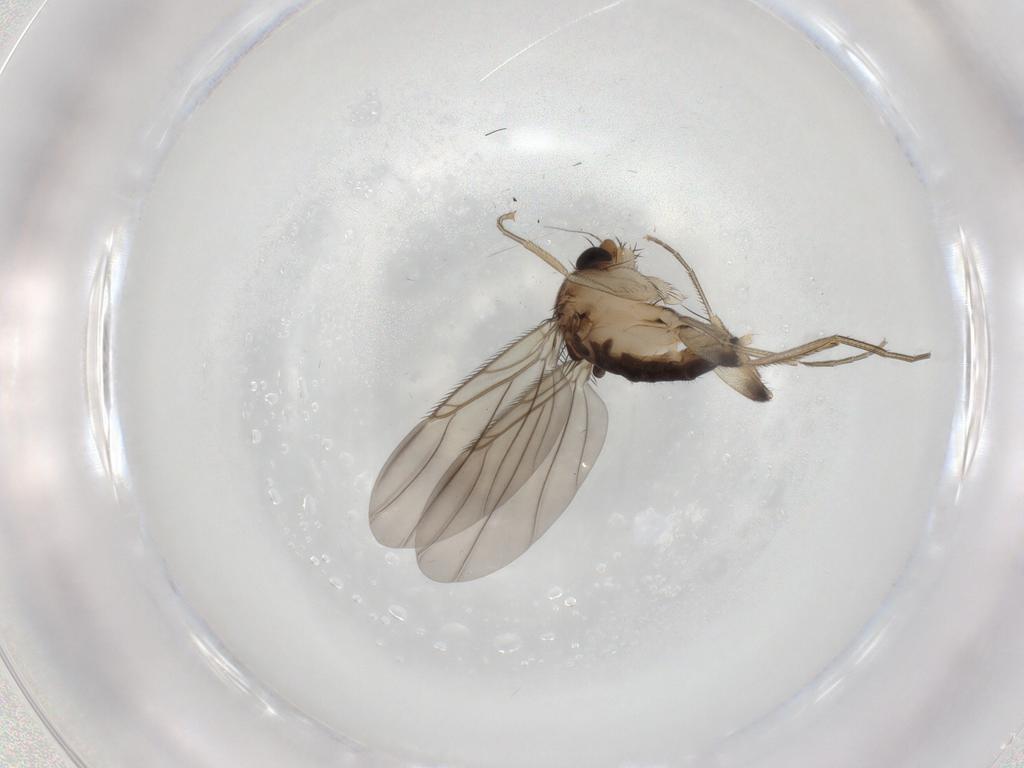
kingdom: Animalia
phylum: Arthropoda
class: Insecta
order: Diptera
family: Phoridae
